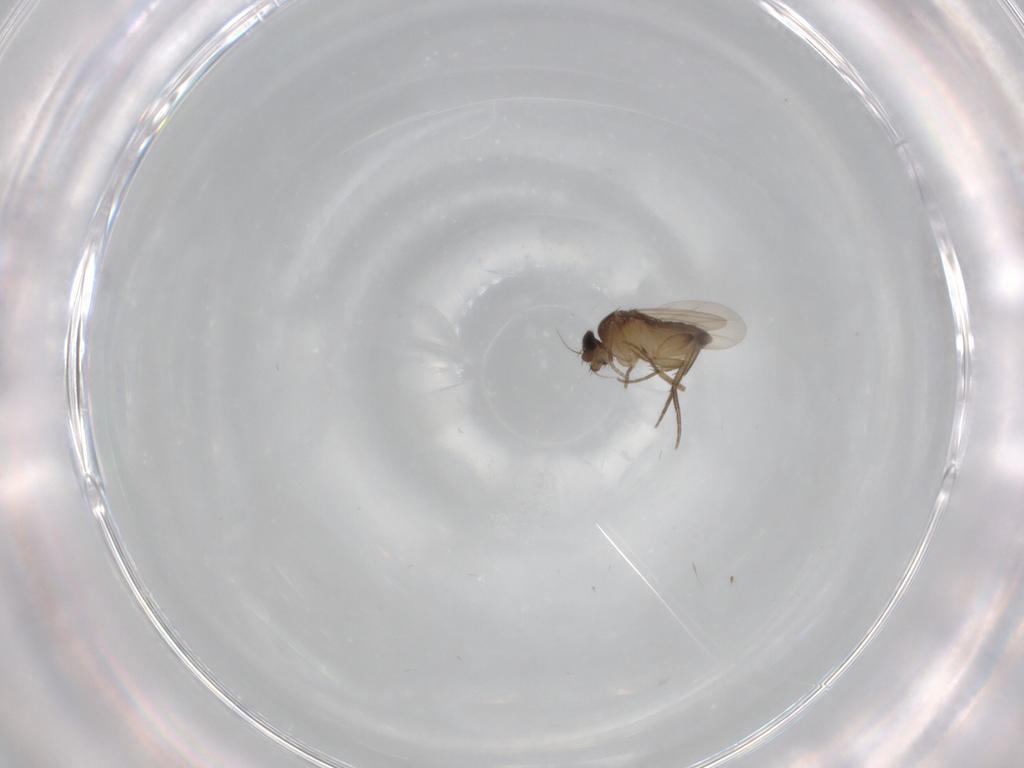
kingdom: Animalia
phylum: Arthropoda
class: Insecta
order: Diptera
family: Phoridae
